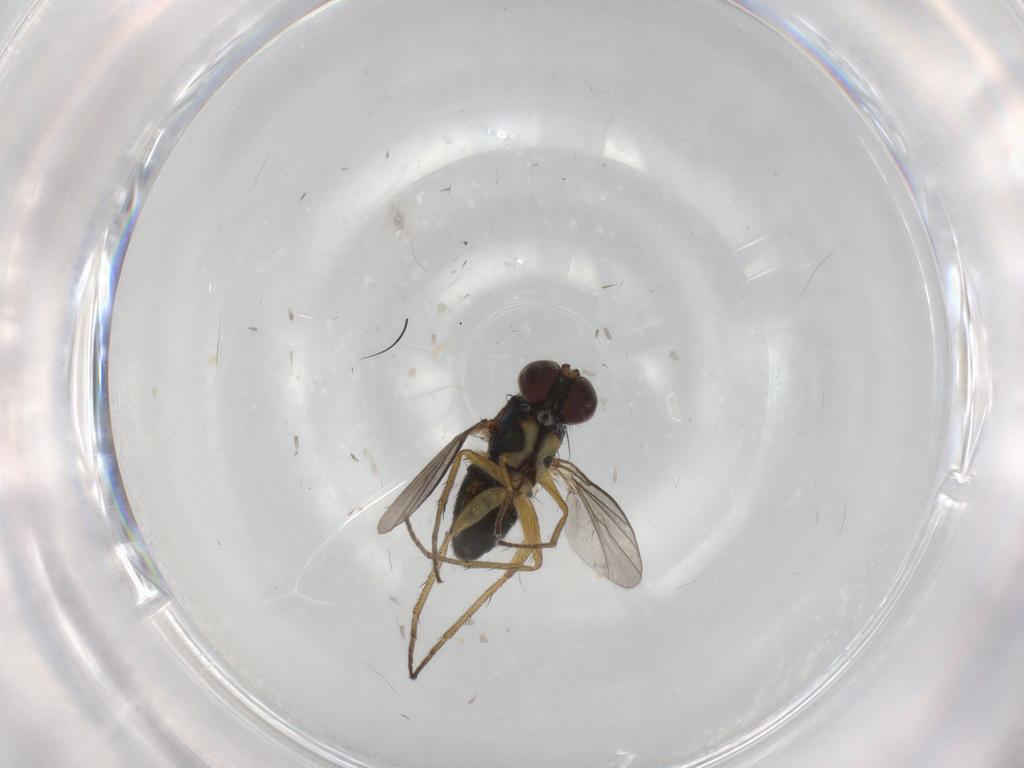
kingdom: Animalia
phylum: Arthropoda
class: Insecta
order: Diptera
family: Dolichopodidae
